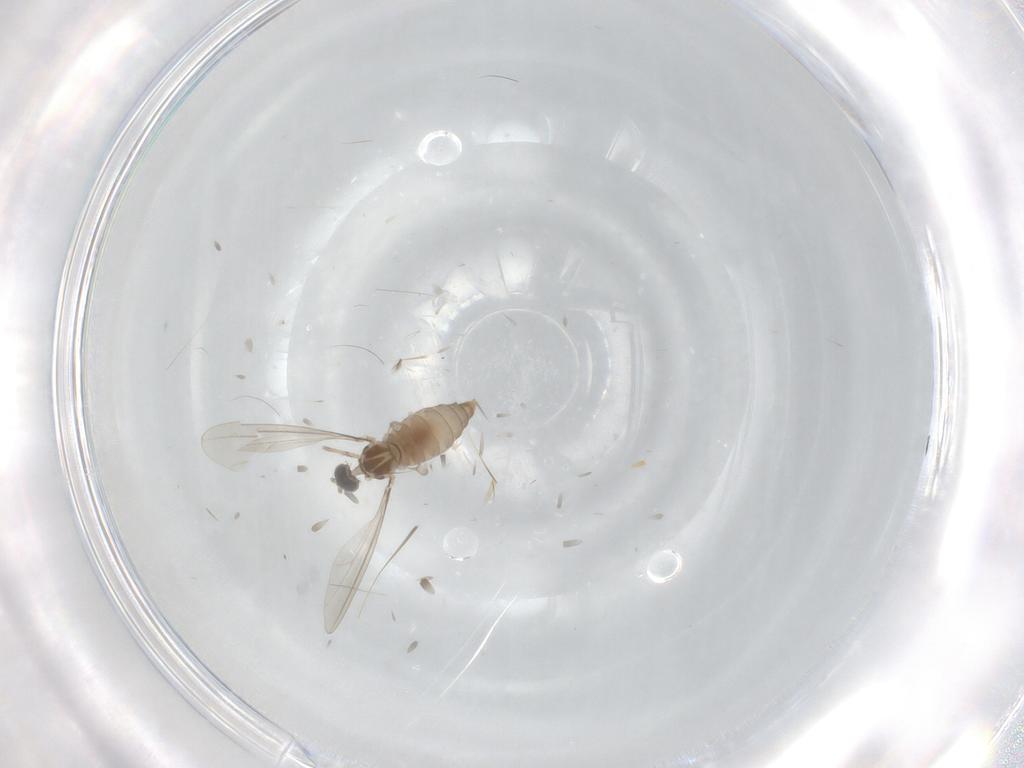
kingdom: Animalia
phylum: Arthropoda
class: Insecta
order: Diptera
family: Cecidomyiidae
